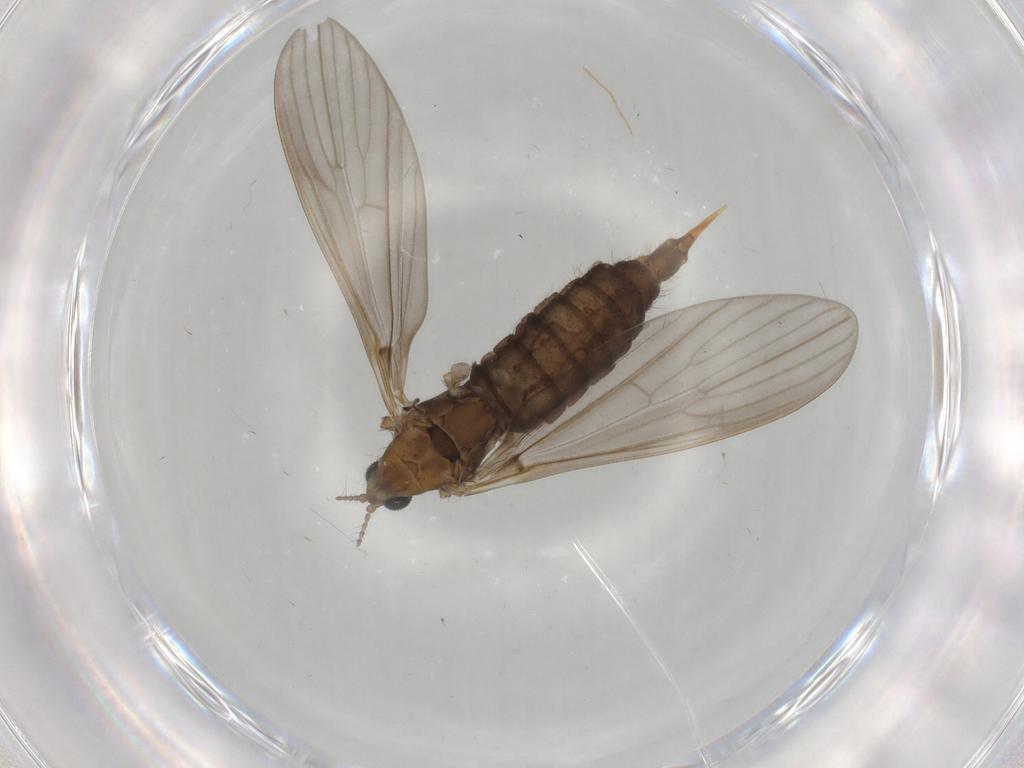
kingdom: Animalia
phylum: Arthropoda
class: Insecta
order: Diptera
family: Limoniidae
